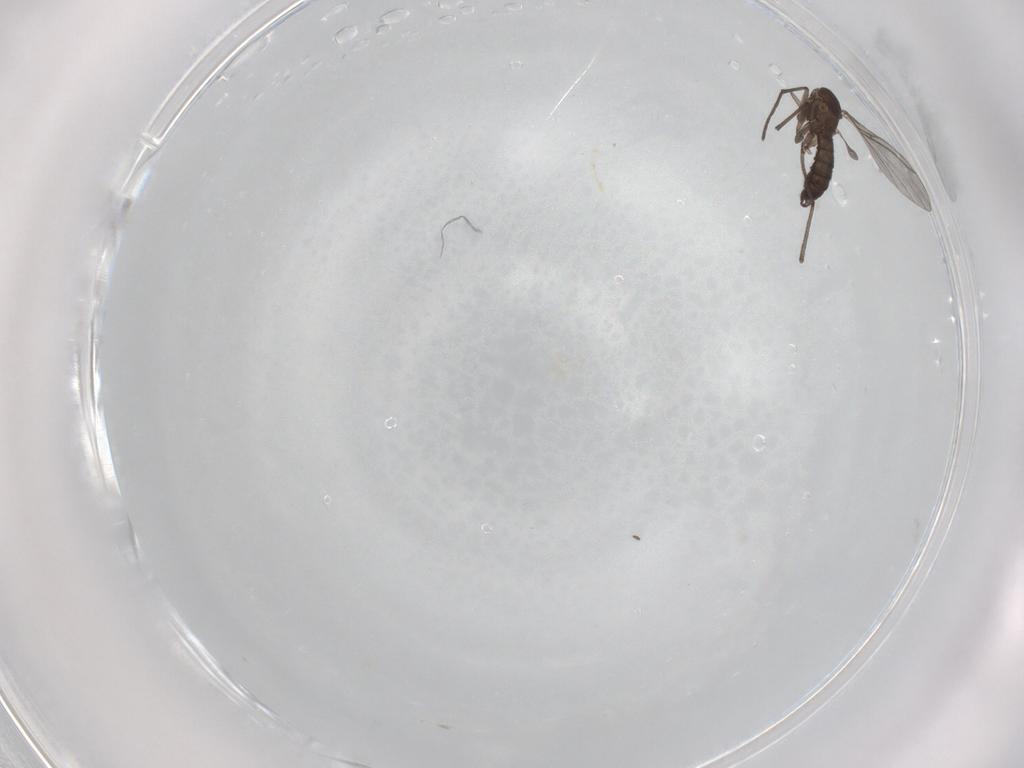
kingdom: Animalia
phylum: Arthropoda
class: Insecta
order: Diptera
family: Sciaridae
